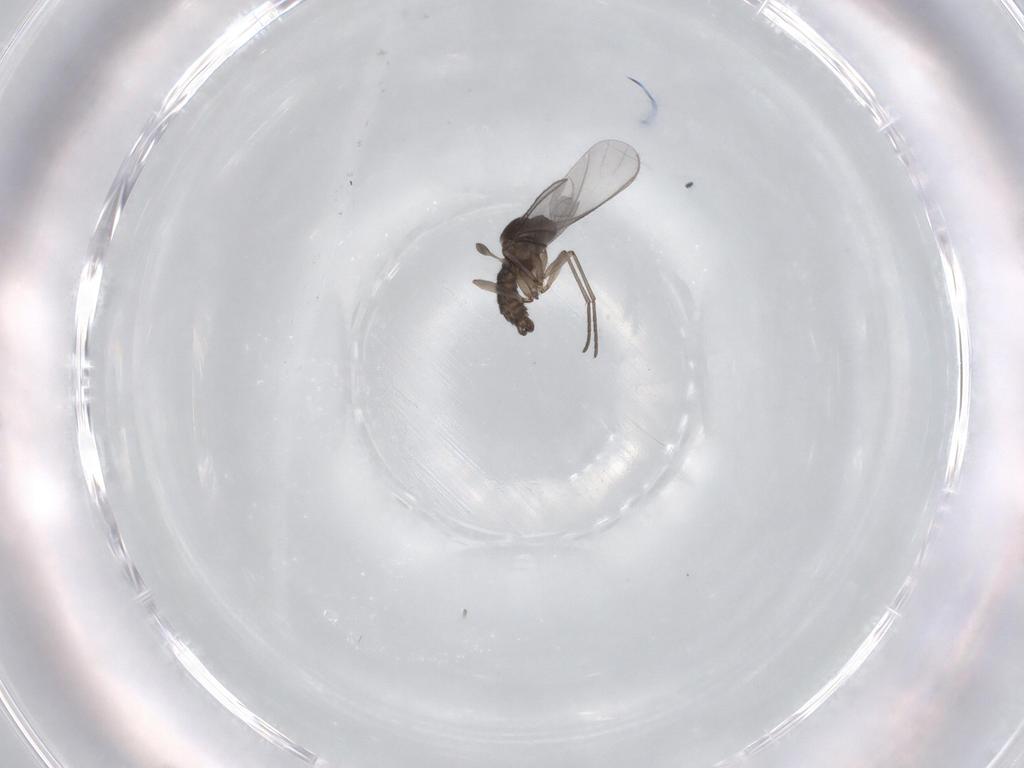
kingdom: Animalia
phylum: Arthropoda
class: Insecta
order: Diptera
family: Sciaridae
